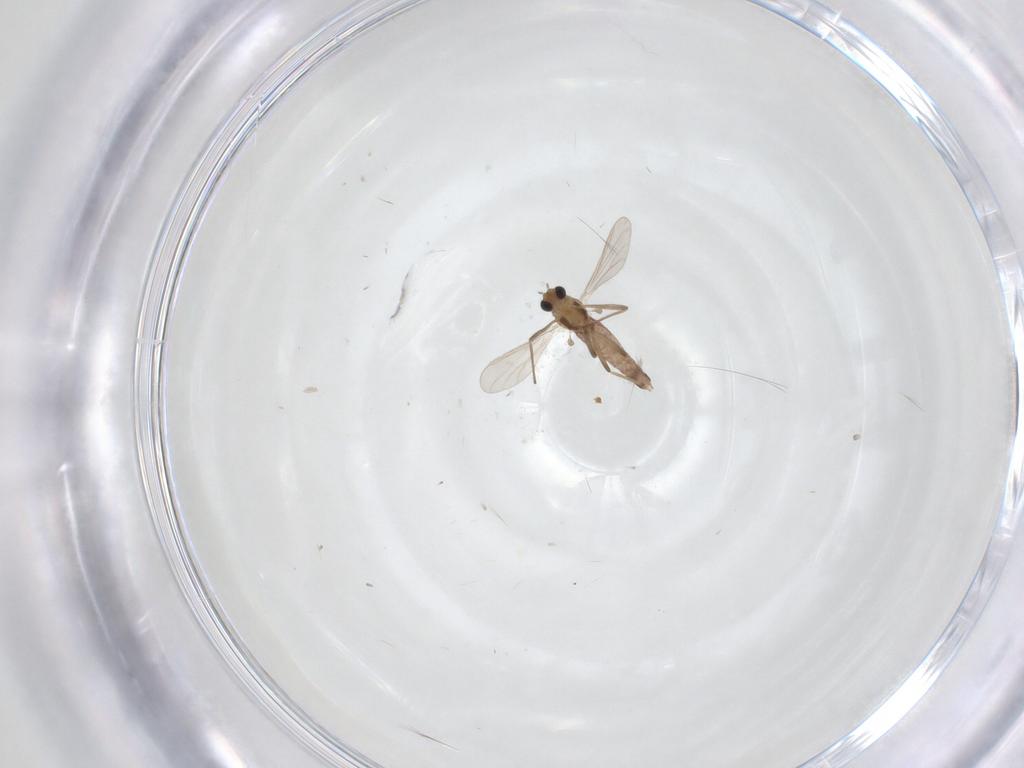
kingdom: Animalia
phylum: Arthropoda
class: Insecta
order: Diptera
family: Chironomidae
